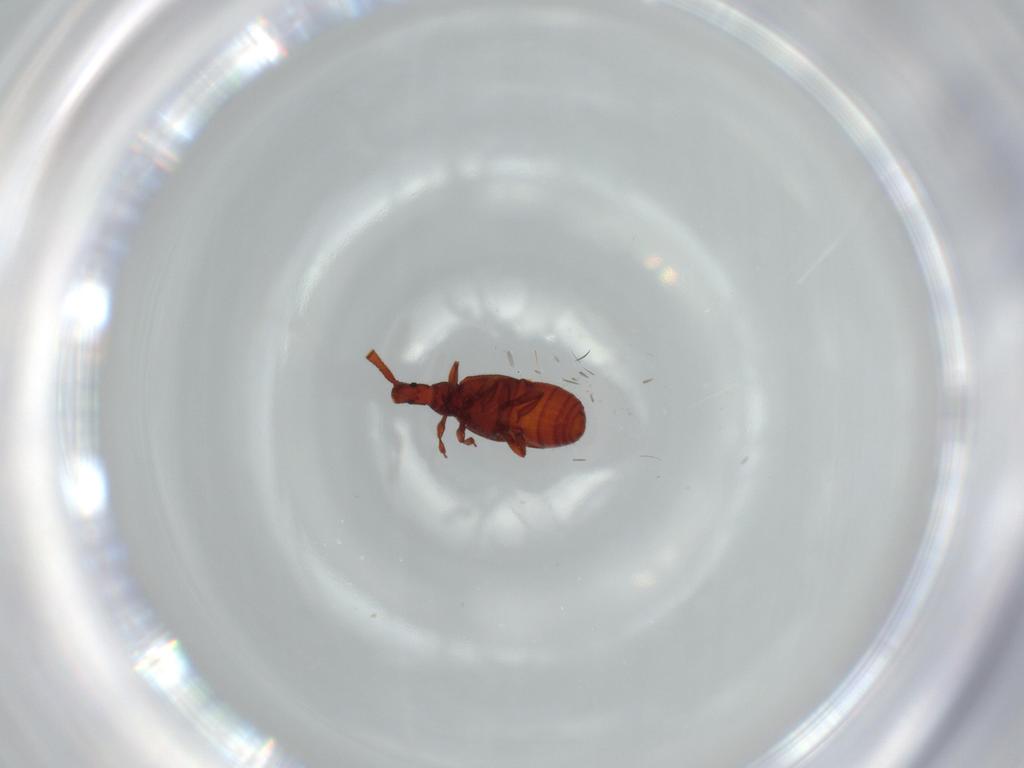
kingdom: Animalia
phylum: Arthropoda
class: Insecta
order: Coleoptera
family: Staphylinidae
